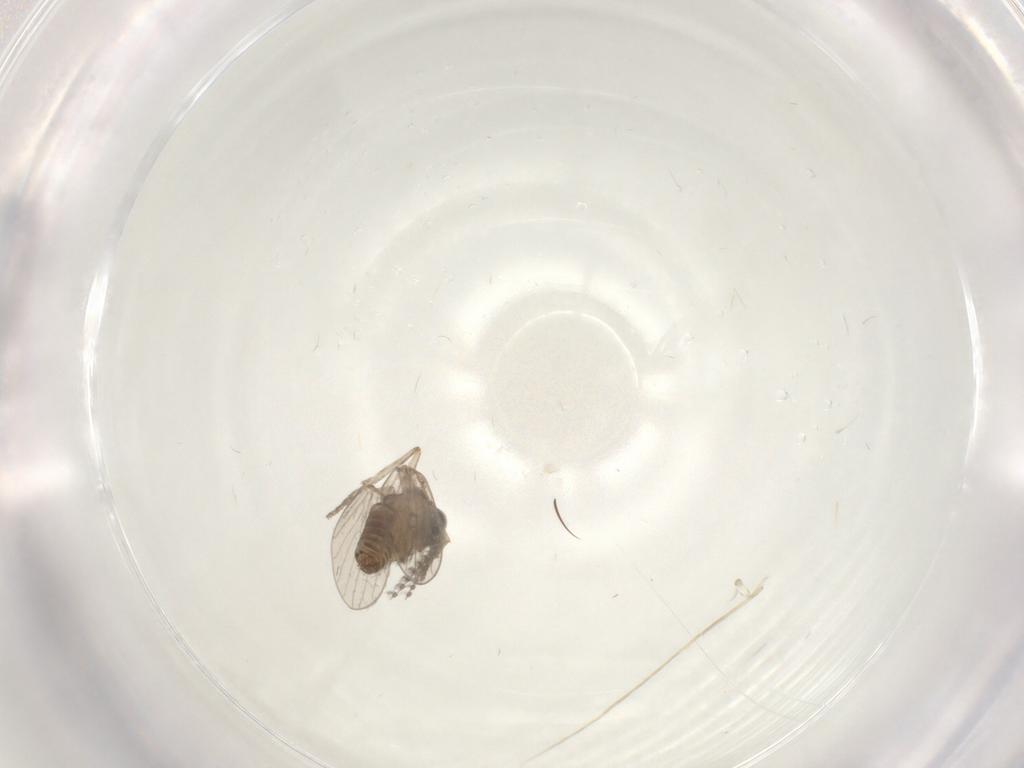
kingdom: Animalia
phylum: Arthropoda
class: Insecta
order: Diptera
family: Psychodidae
